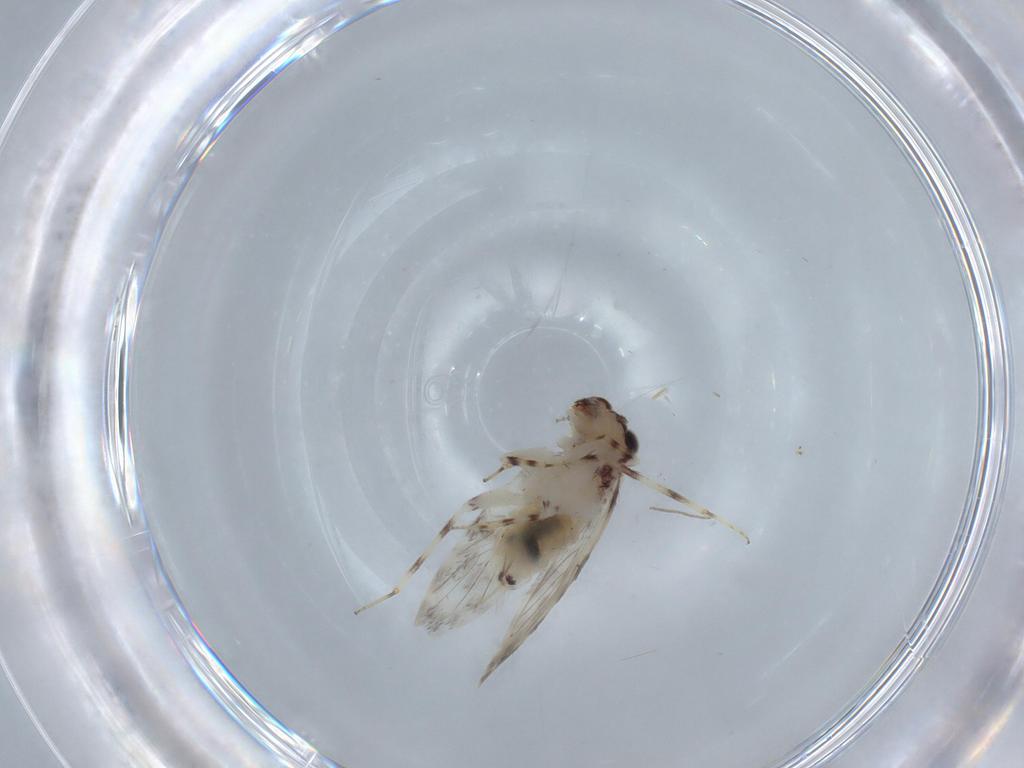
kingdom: Animalia
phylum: Arthropoda
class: Insecta
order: Psocodea
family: Lepidopsocidae
